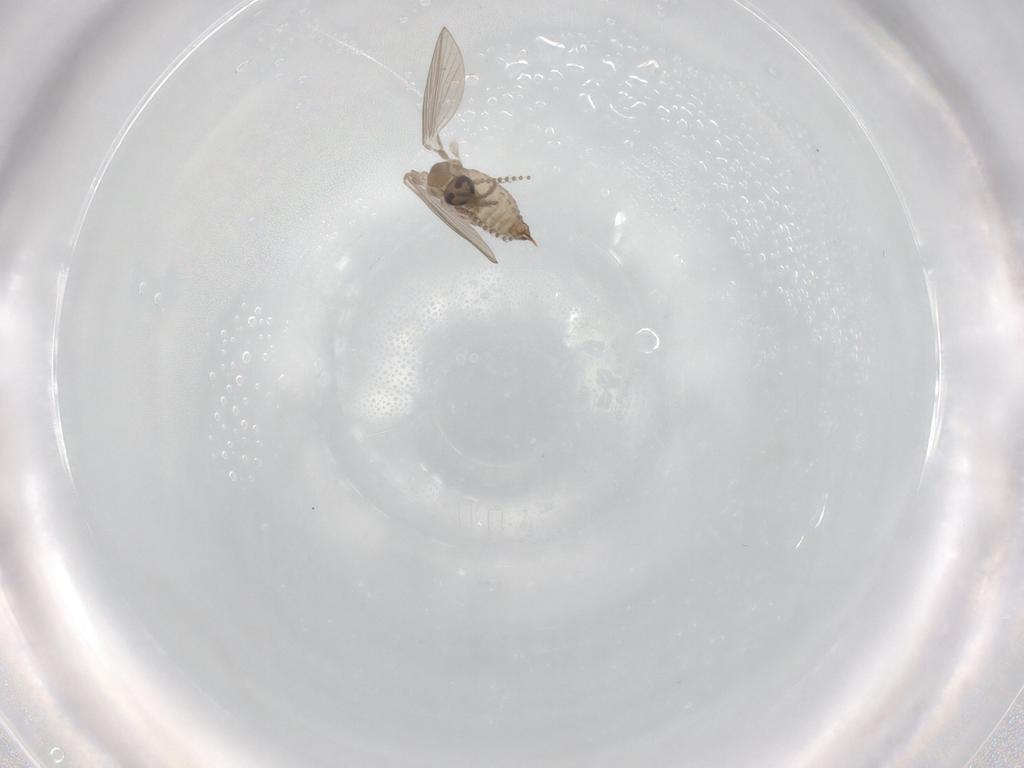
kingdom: Animalia
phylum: Arthropoda
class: Insecta
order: Diptera
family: Sciaridae
